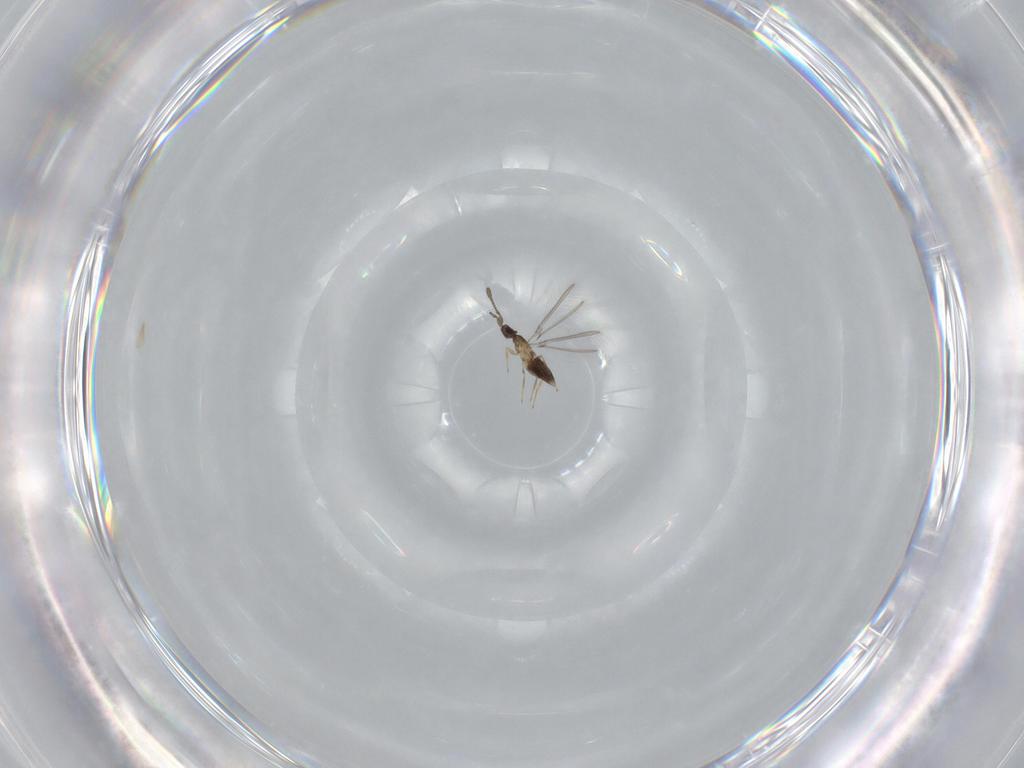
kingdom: Animalia
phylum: Arthropoda
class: Insecta
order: Hymenoptera
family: Mymaridae
